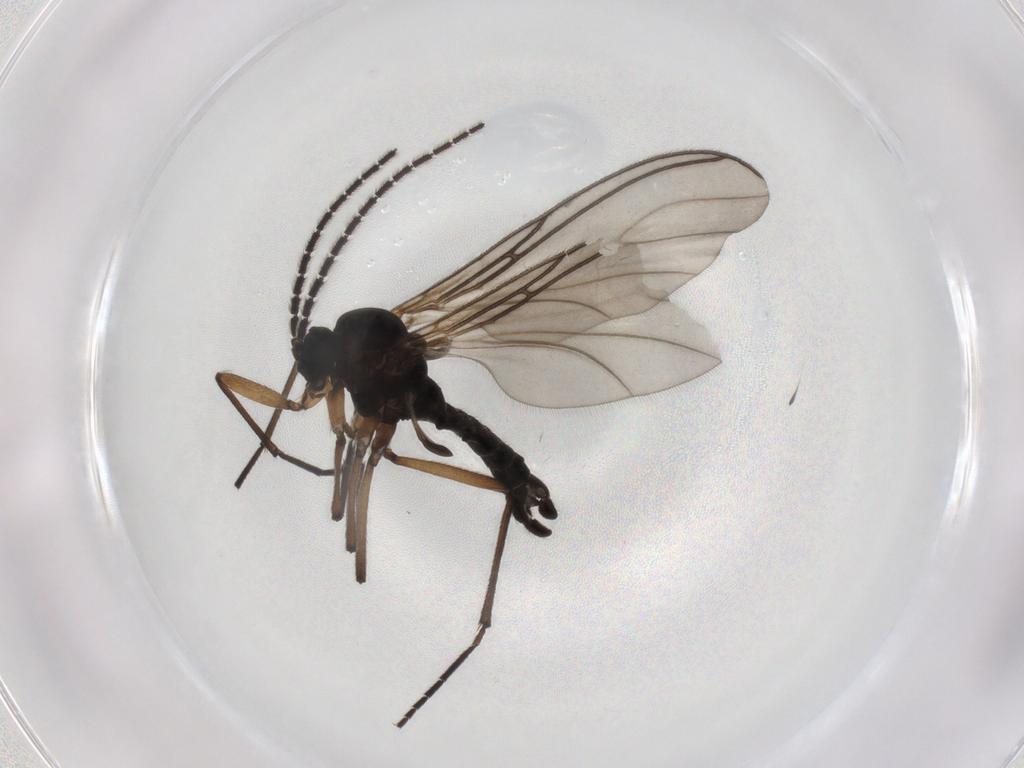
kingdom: Animalia
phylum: Arthropoda
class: Insecta
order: Diptera
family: Sciaridae
